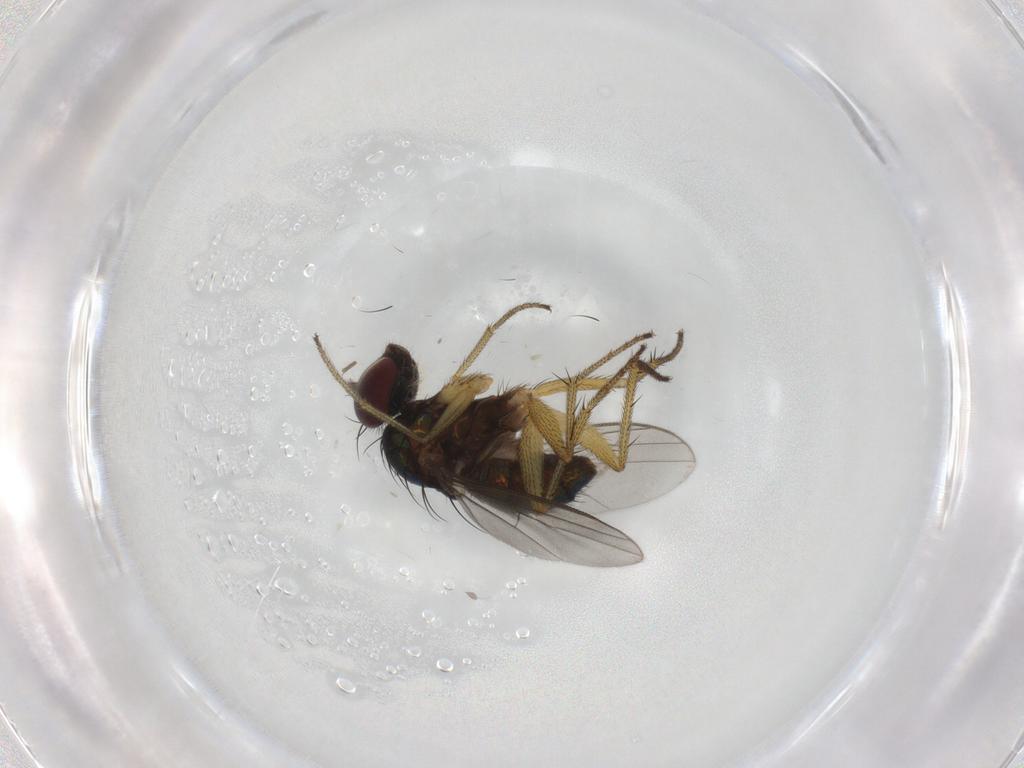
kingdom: Animalia
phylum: Arthropoda
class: Insecta
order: Diptera
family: Dolichopodidae
